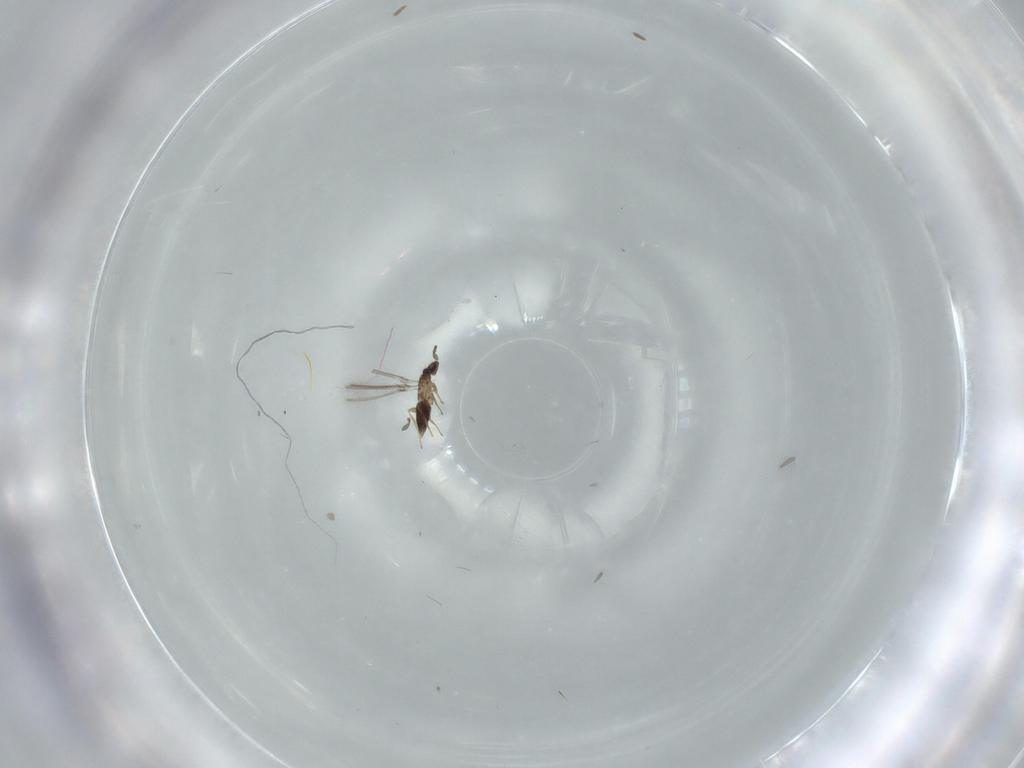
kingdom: Animalia
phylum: Arthropoda
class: Insecta
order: Hymenoptera
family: Mymaridae
